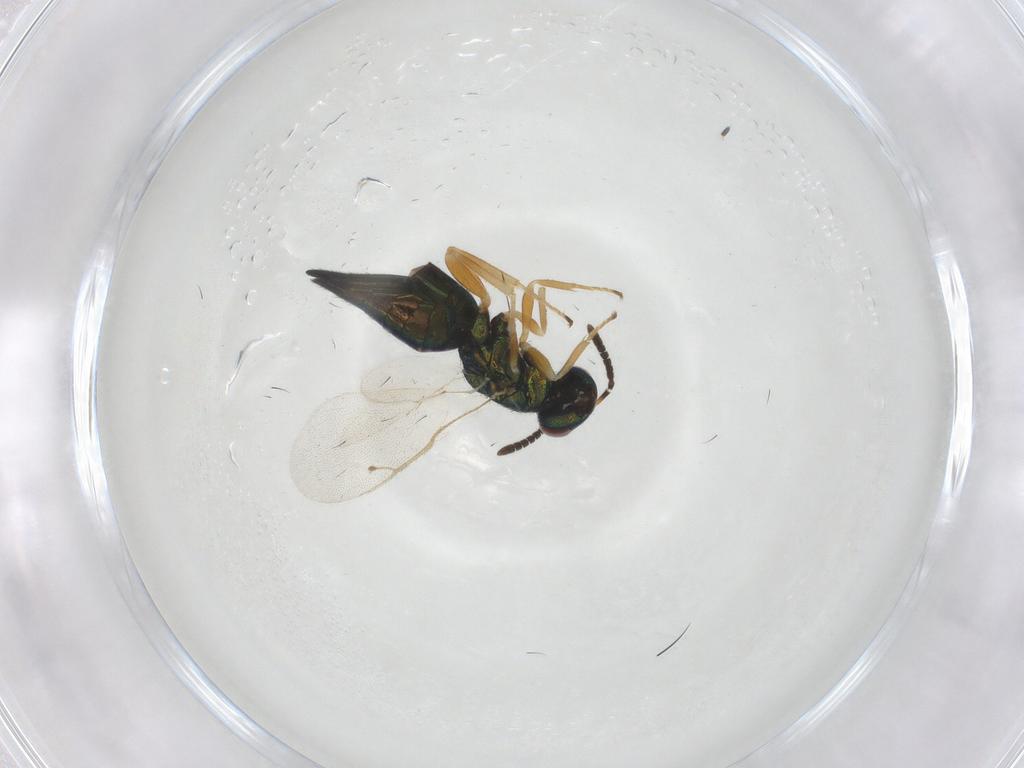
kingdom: Animalia
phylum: Arthropoda
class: Insecta
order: Hymenoptera
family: Pteromalidae
